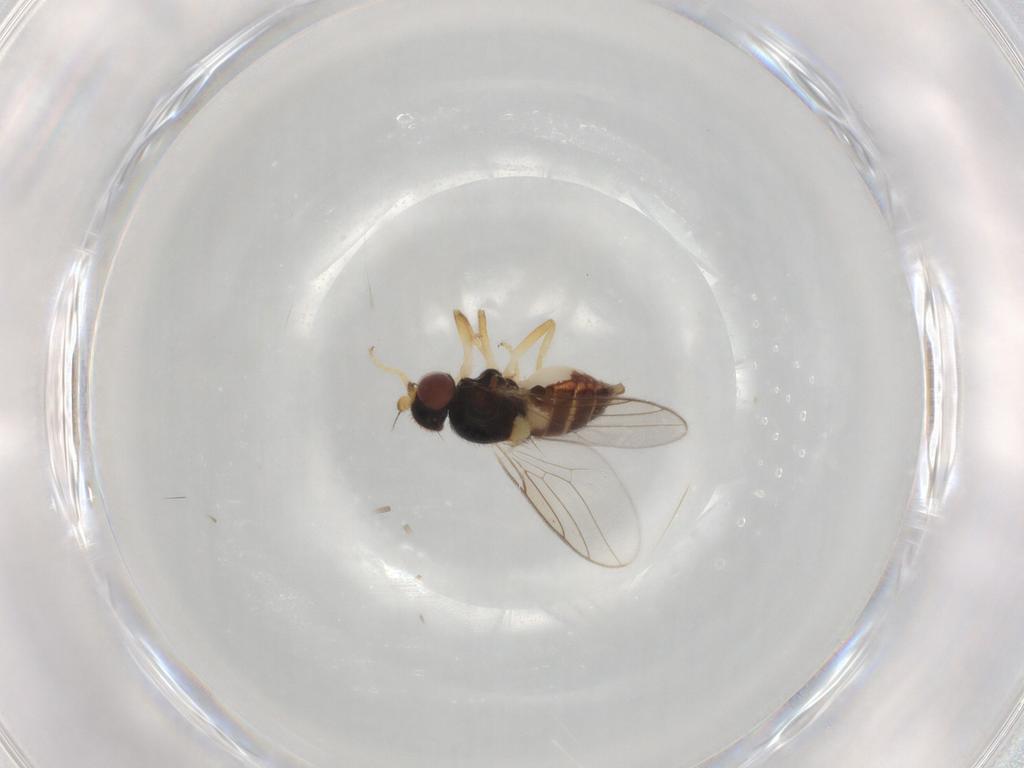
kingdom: Animalia
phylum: Arthropoda
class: Insecta
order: Diptera
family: Chloropidae
